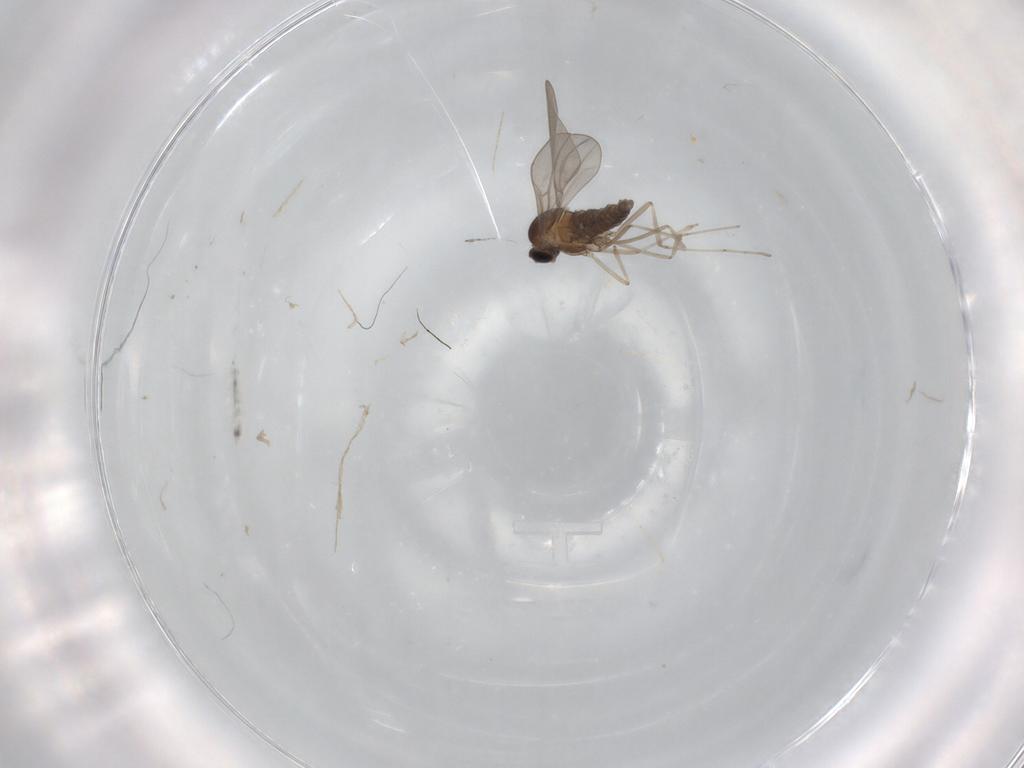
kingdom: Animalia
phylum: Arthropoda
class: Insecta
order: Diptera
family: Cecidomyiidae
